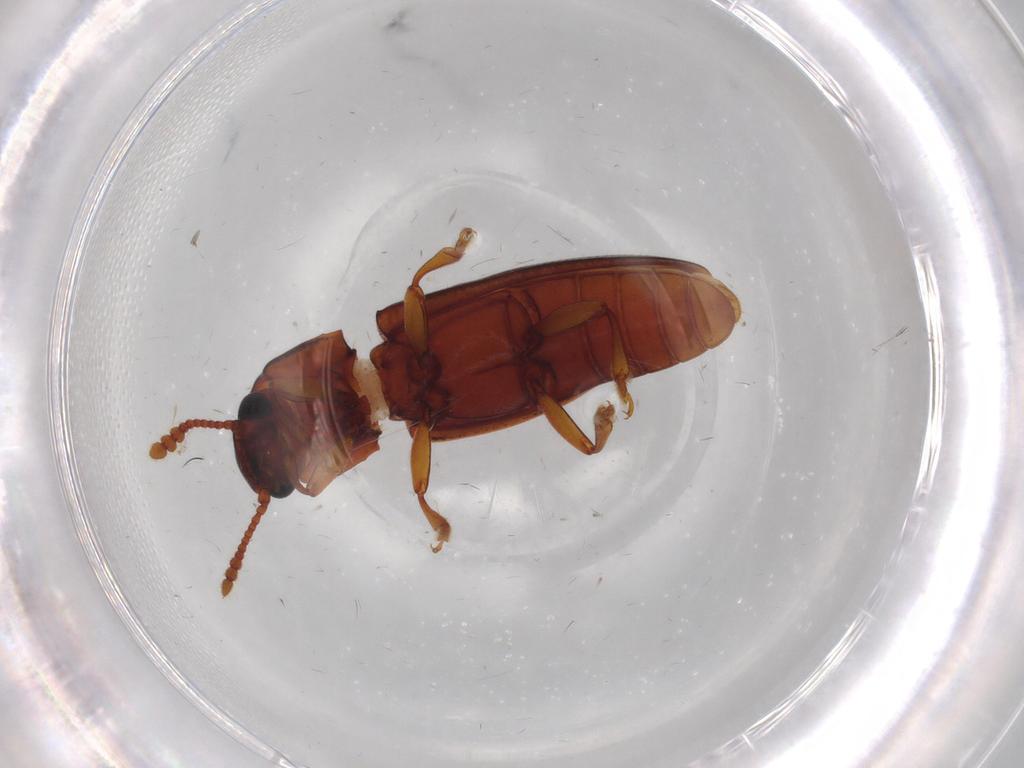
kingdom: Animalia
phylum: Arthropoda
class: Insecta
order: Coleoptera
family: Erotylidae
